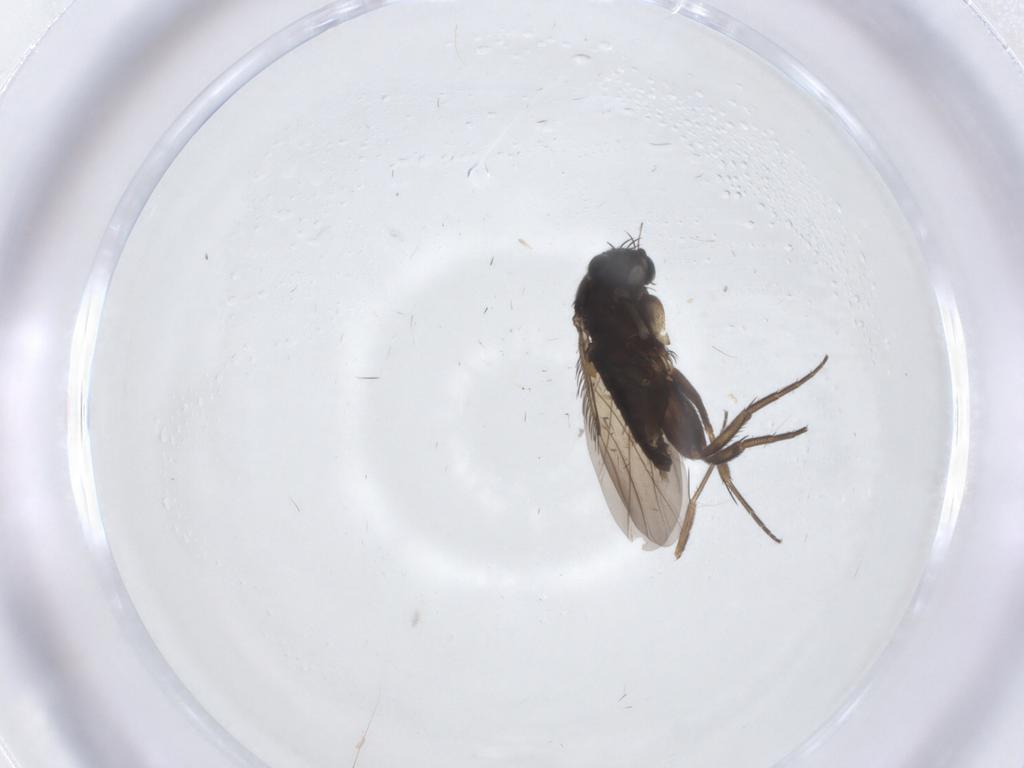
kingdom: Animalia
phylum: Arthropoda
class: Insecta
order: Diptera
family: Phoridae
